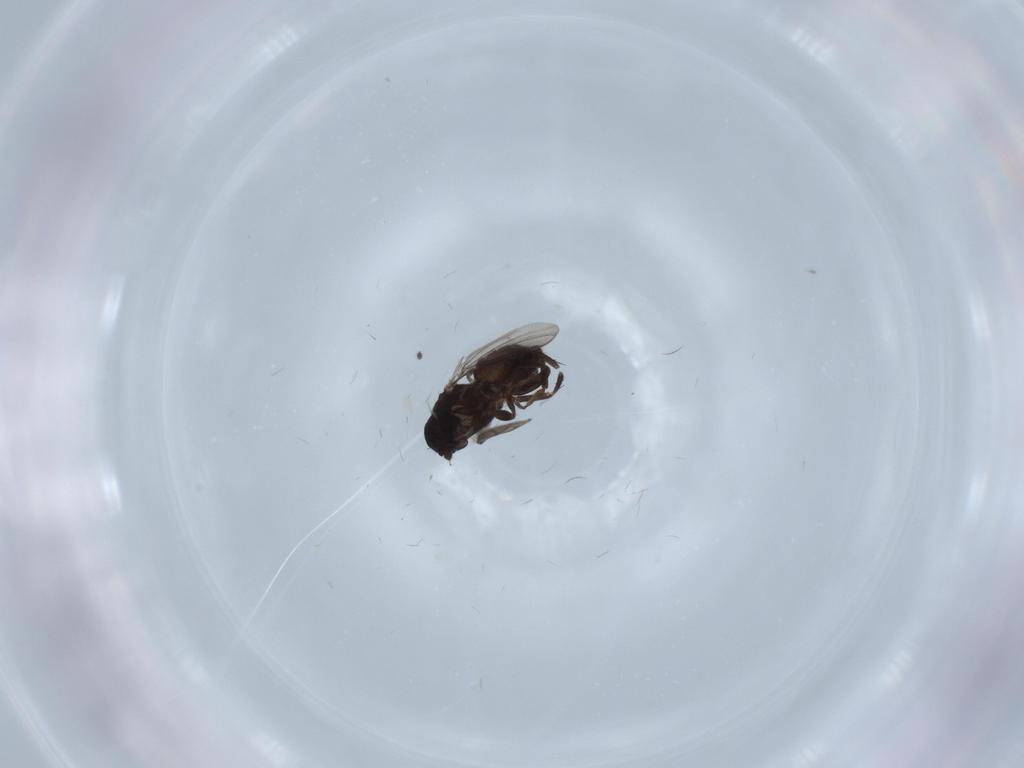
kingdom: Animalia
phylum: Arthropoda
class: Insecta
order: Diptera
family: Sphaeroceridae
